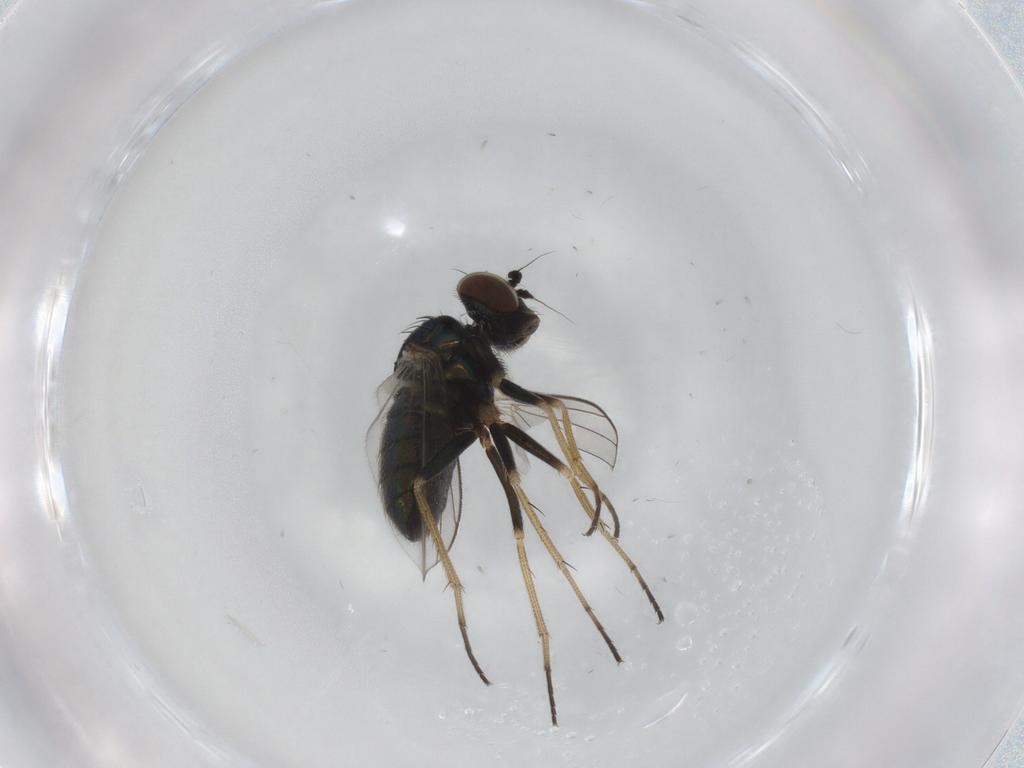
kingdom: Animalia
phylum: Arthropoda
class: Insecta
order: Diptera
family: Dolichopodidae
